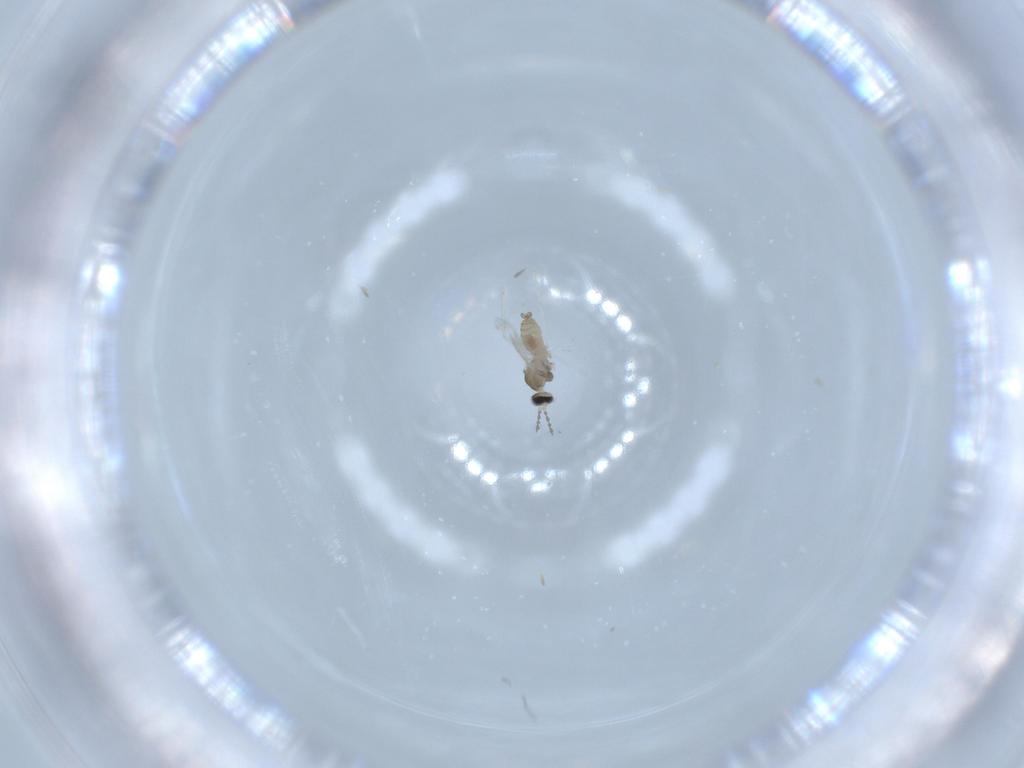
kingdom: Animalia
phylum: Arthropoda
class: Insecta
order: Diptera
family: Cecidomyiidae
